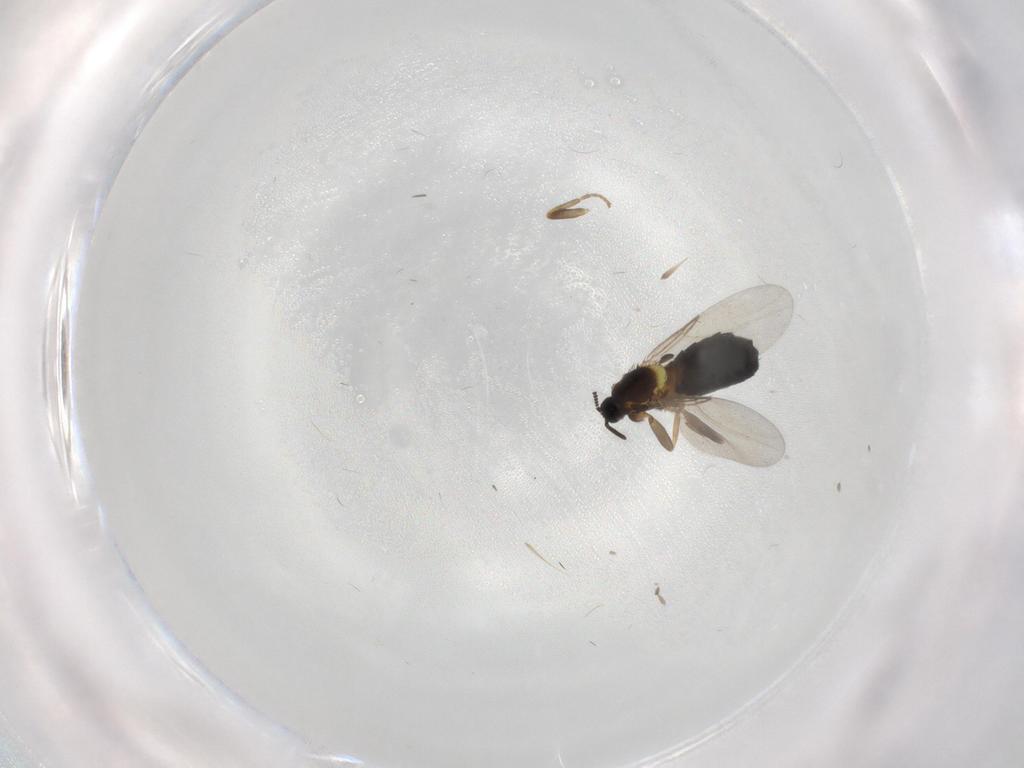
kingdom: Animalia
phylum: Arthropoda
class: Insecta
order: Diptera
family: Scatopsidae
